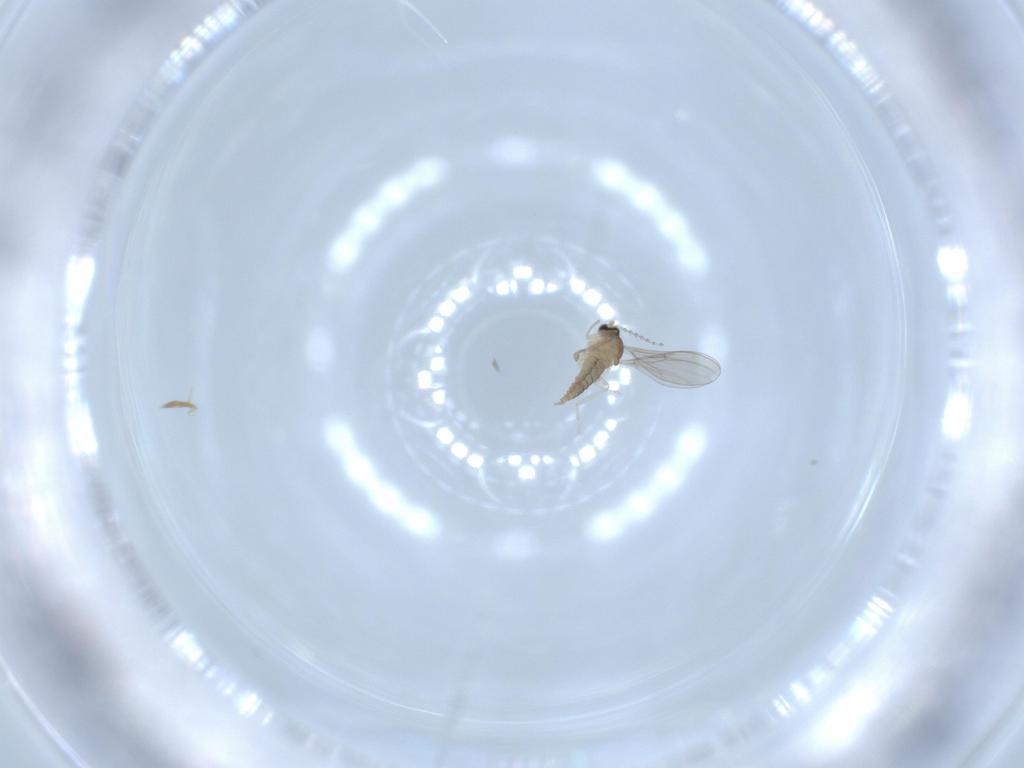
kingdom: Animalia
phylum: Arthropoda
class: Insecta
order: Diptera
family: Cecidomyiidae
